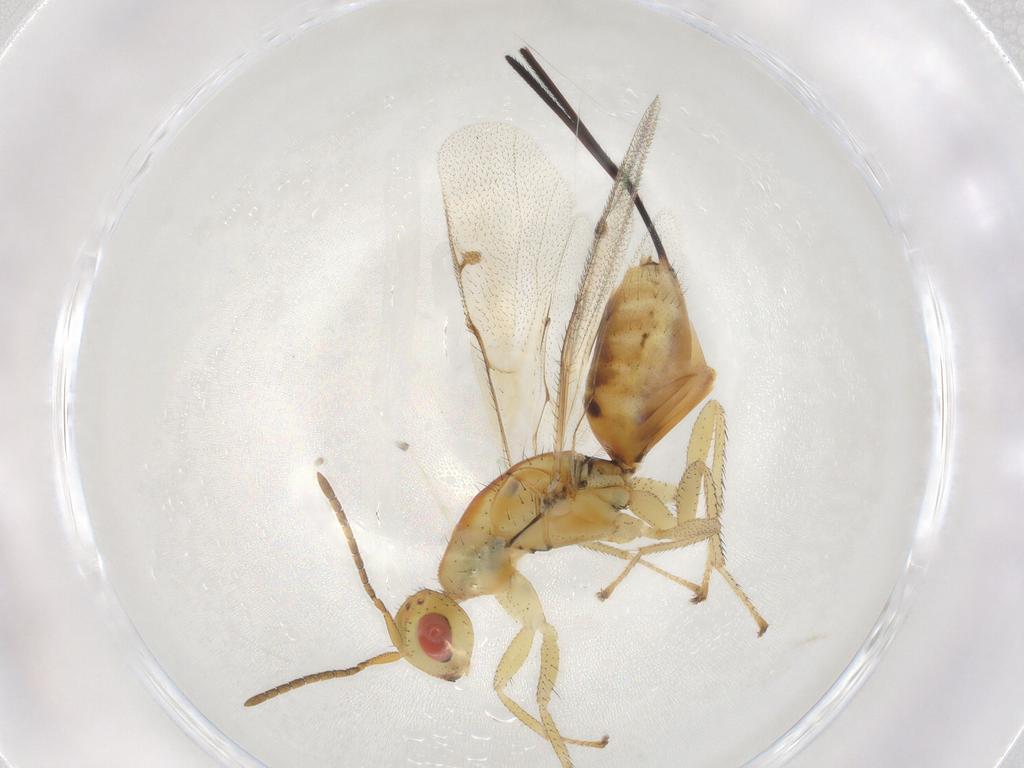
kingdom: Animalia
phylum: Arthropoda
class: Insecta
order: Hymenoptera
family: Megastigmidae
